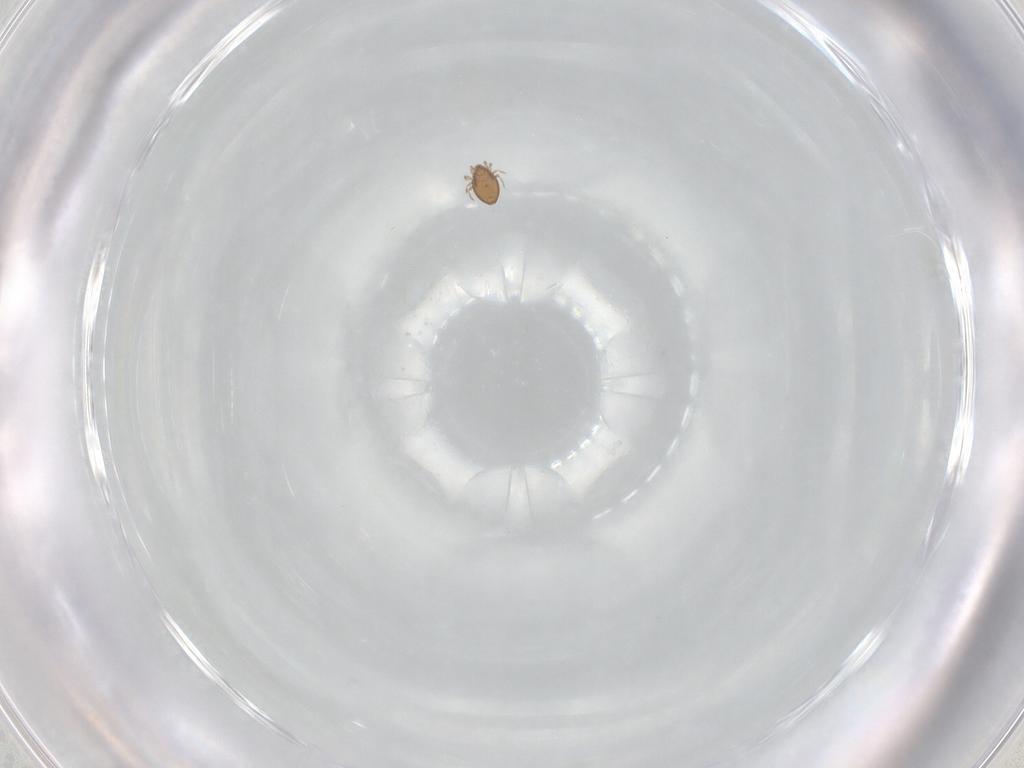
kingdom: Animalia
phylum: Arthropoda
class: Arachnida
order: Sarcoptiformes
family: Oribatulidae
